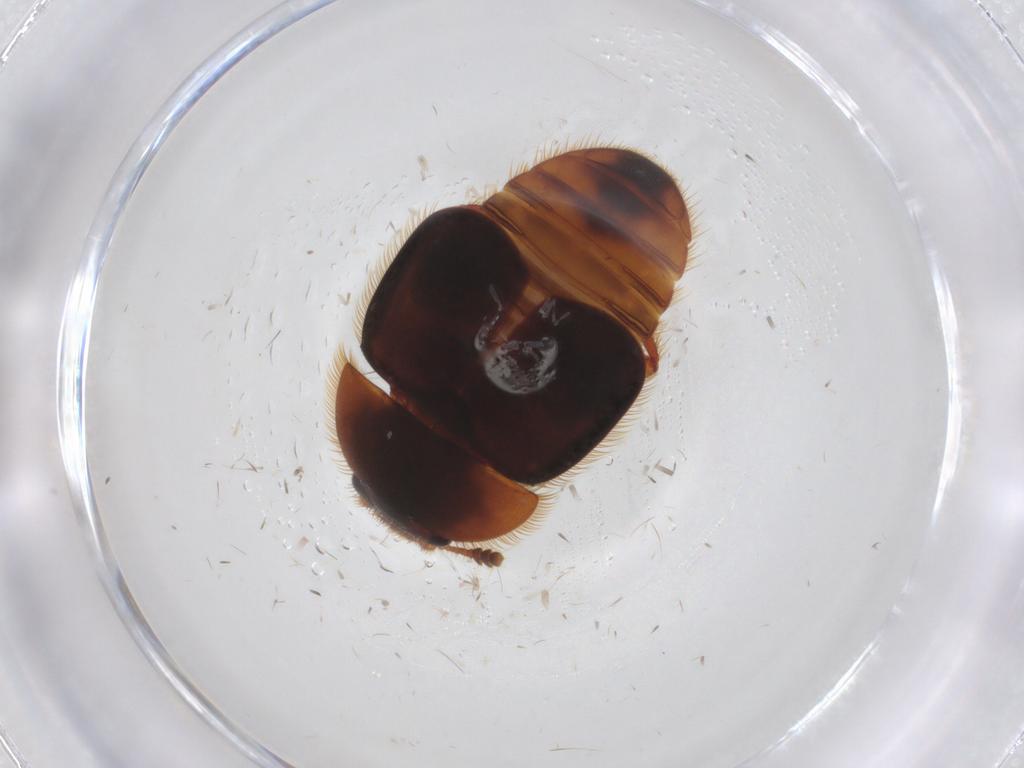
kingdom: Animalia
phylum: Arthropoda
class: Insecta
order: Coleoptera
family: Nitidulidae
